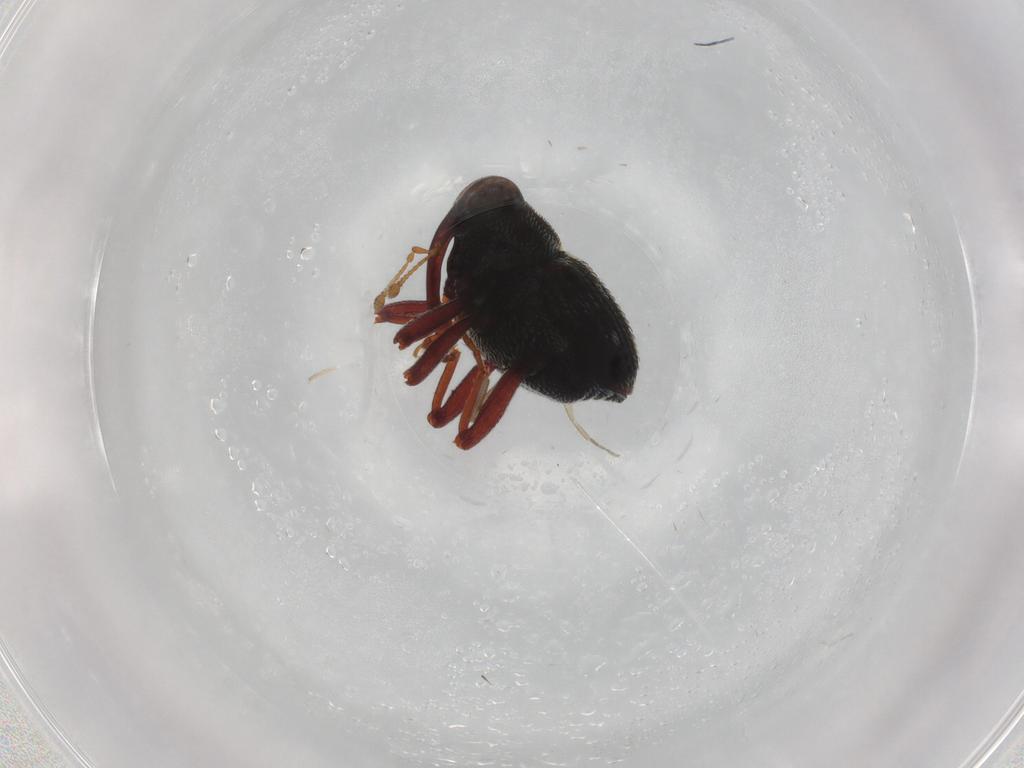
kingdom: Animalia
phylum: Arthropoda
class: Insecta
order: Coleoptera
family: Curculionidae
